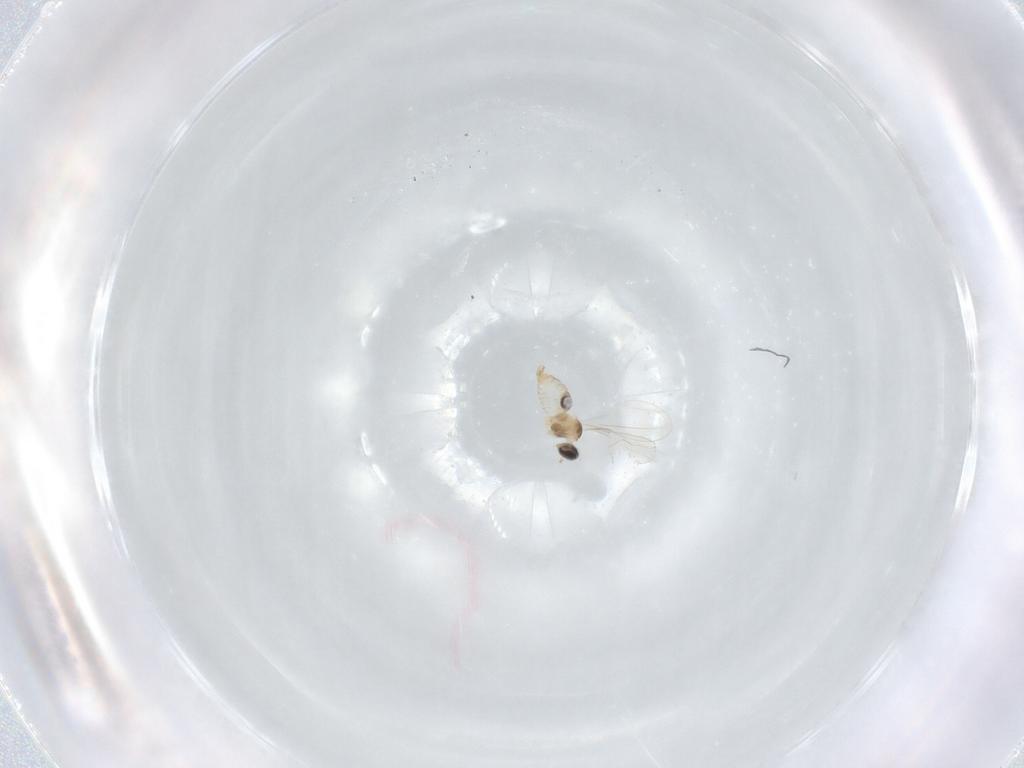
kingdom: Animalia
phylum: Arthropoda
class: Insecta
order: Diptera
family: Cecidomyiidae
